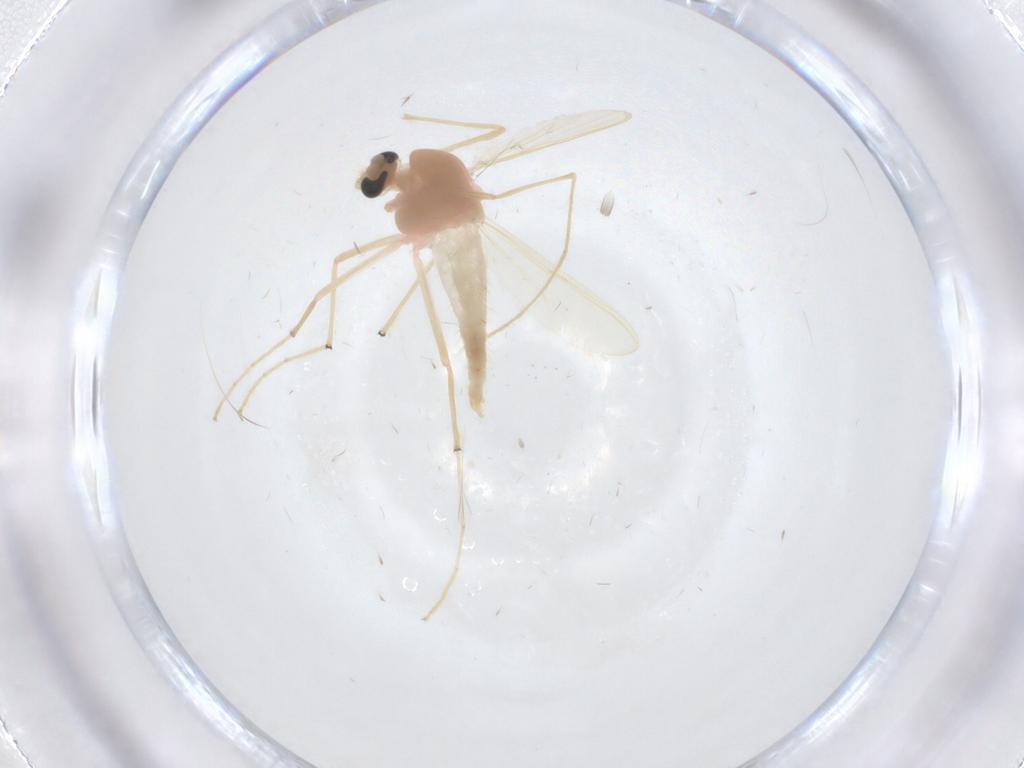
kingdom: Animalia
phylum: Arthropoda
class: Insecta
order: Diptera
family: Chironomidae
